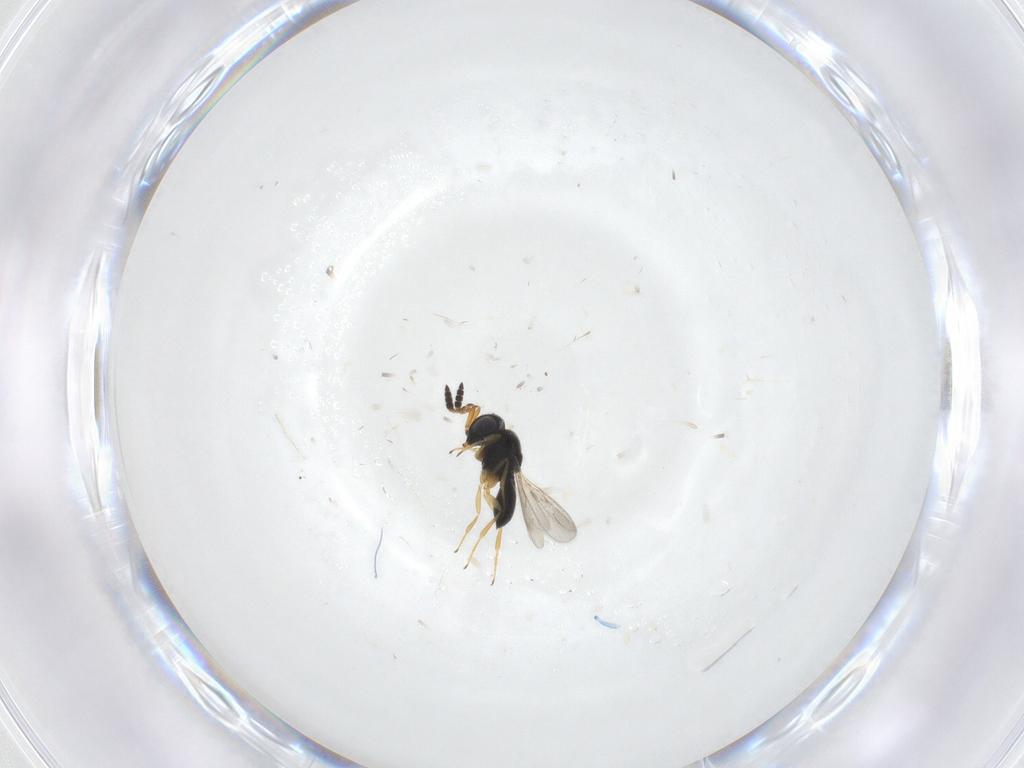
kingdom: Animalia
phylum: Arthropoda
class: Insecta
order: Hymenoptera
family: Scelionidae
